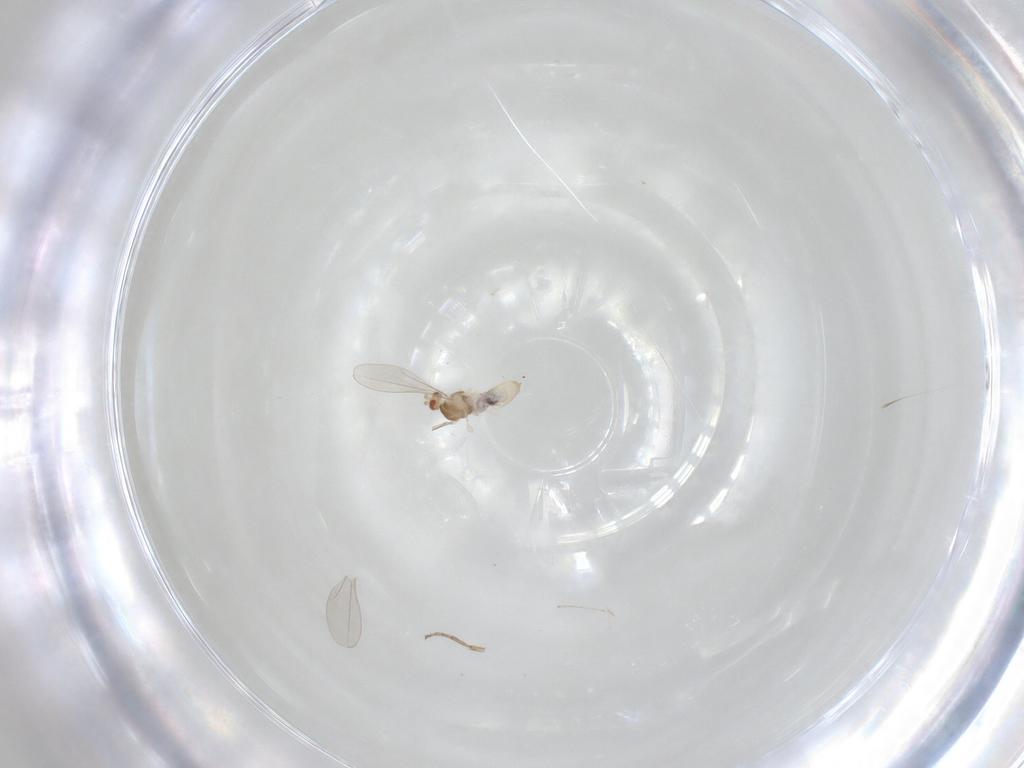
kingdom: Animalia
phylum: Arthropoda
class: Insecta
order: Diptera
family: Cecidomyiidae
